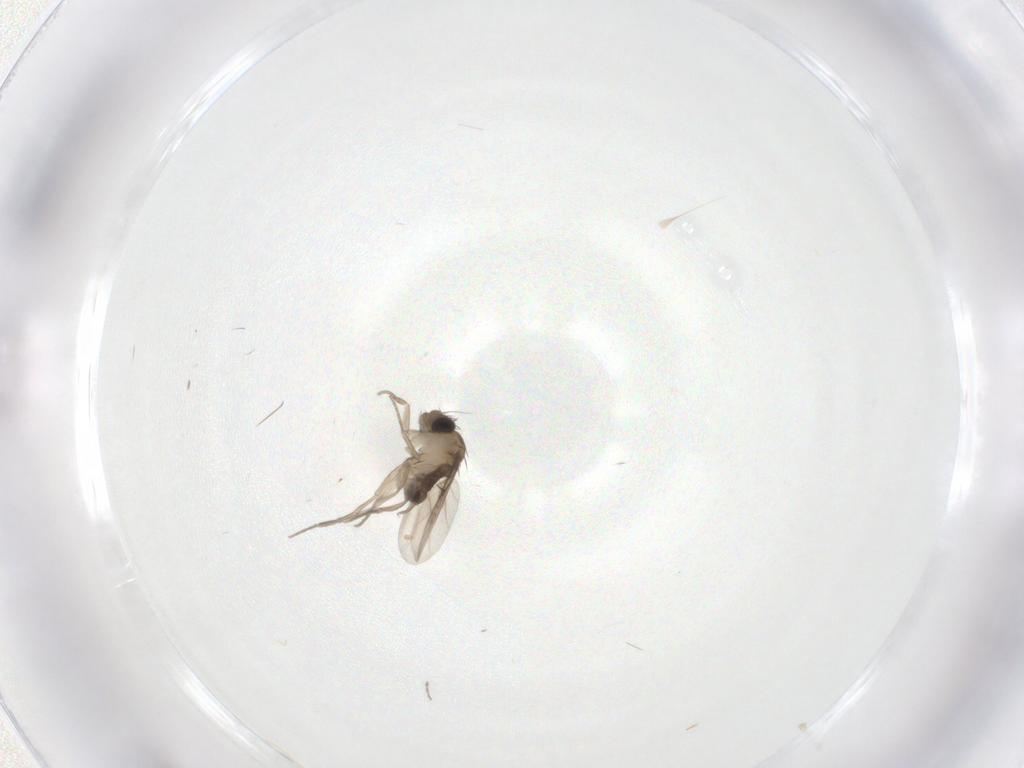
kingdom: Animalia
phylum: Arthropoda
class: Insecta
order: Diptera
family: Phoridae
